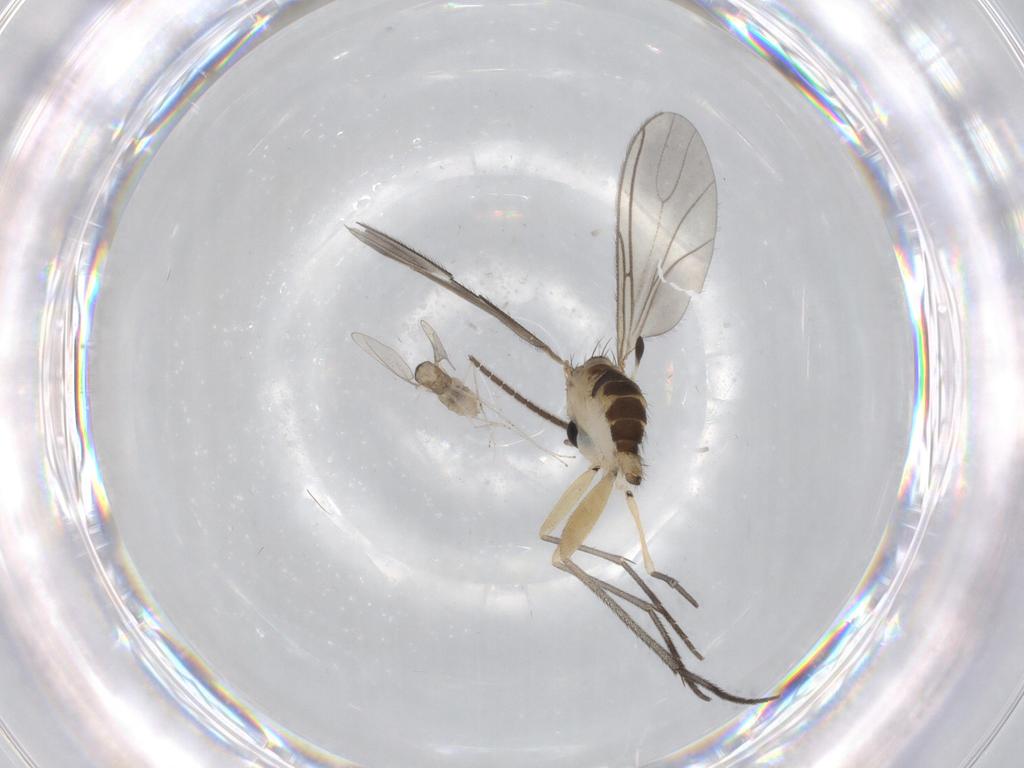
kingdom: Animalia
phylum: Arthropoda
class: Insecta
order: Diptera
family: Sciaridae
